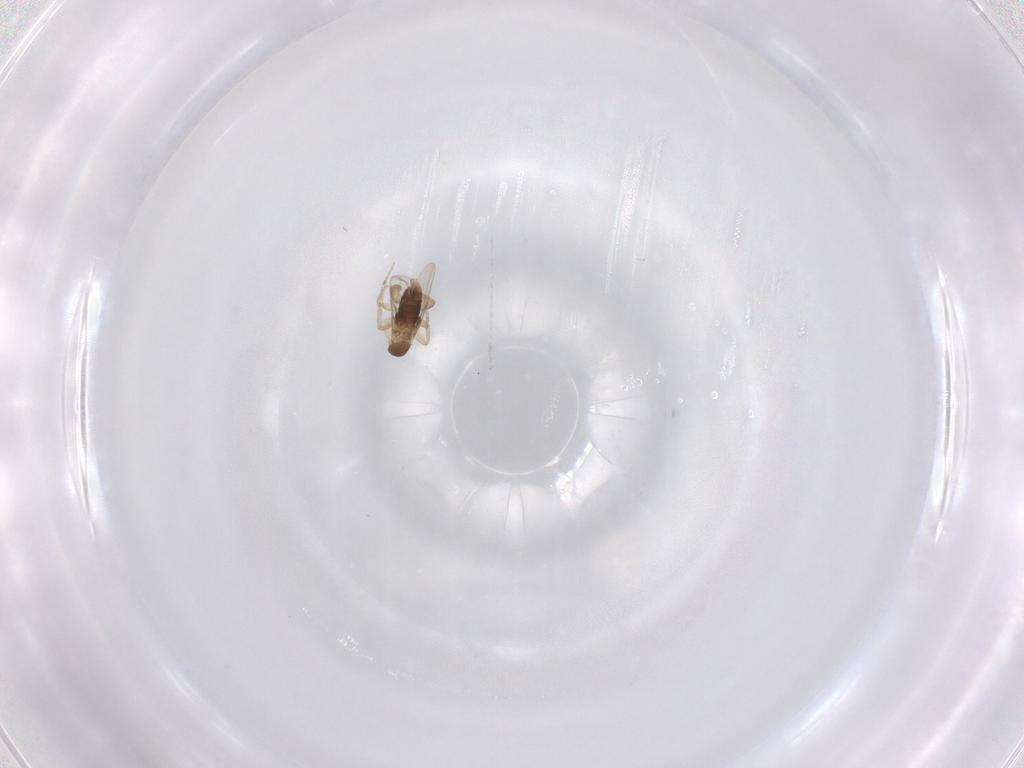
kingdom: Animalia
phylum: Arthropoda
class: Insecta
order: Diptera
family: Phoridae
